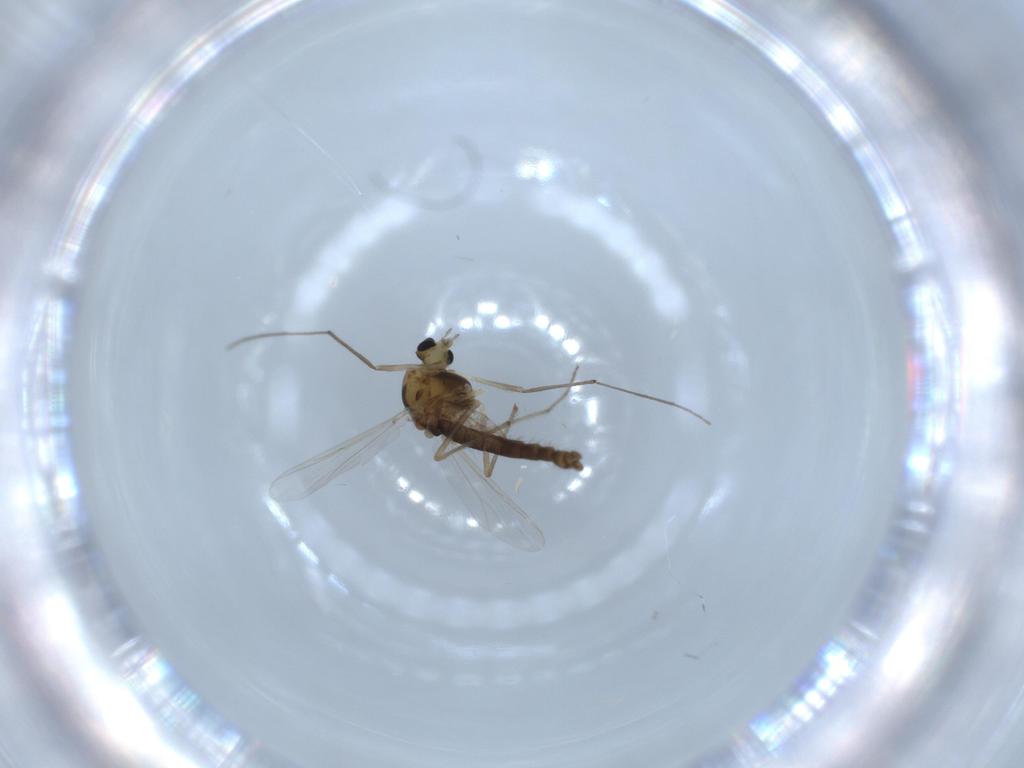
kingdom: Animalia
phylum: Arthropoda
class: Insecta
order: Diptera
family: Chironomidae
